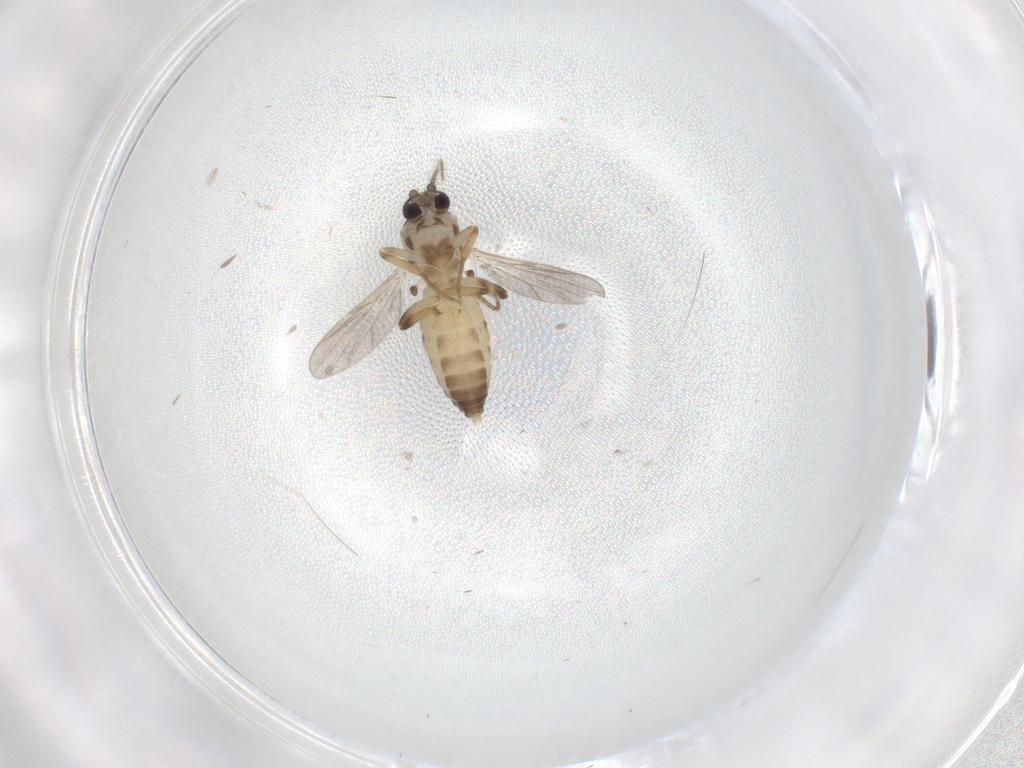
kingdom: Animalia
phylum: Arthropoda
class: Insecta
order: Diptera
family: Ceratopogonidae
